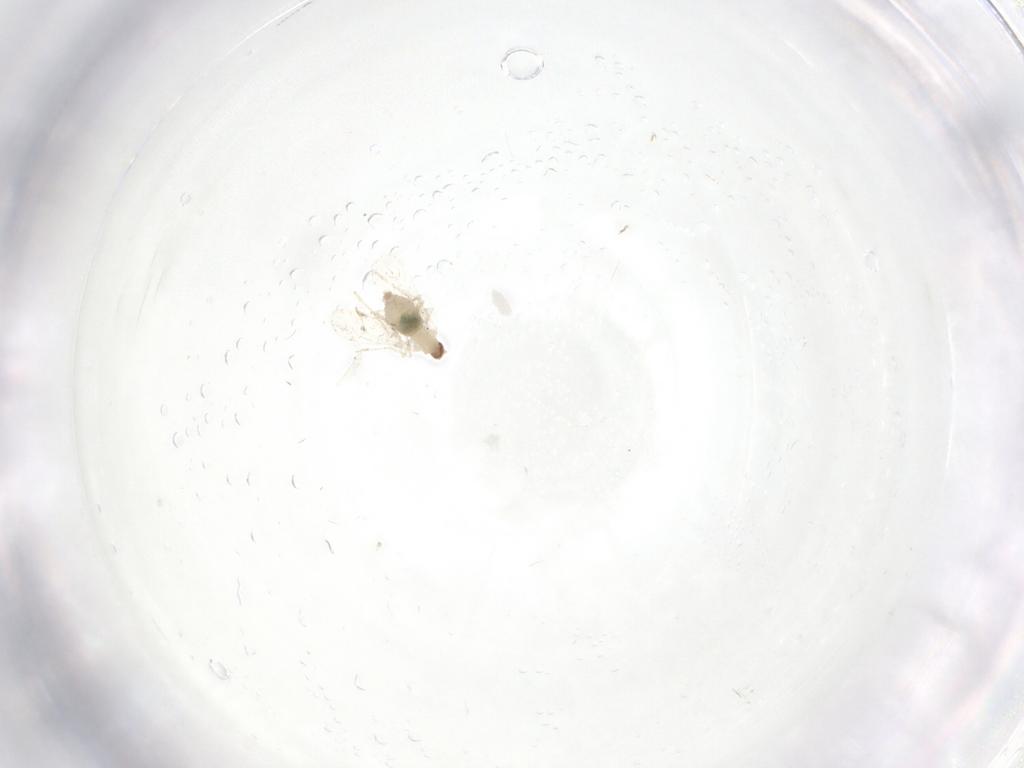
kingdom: Animalia
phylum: Arthropoda
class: Insecta
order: Diptera
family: Cecidomyiidae
